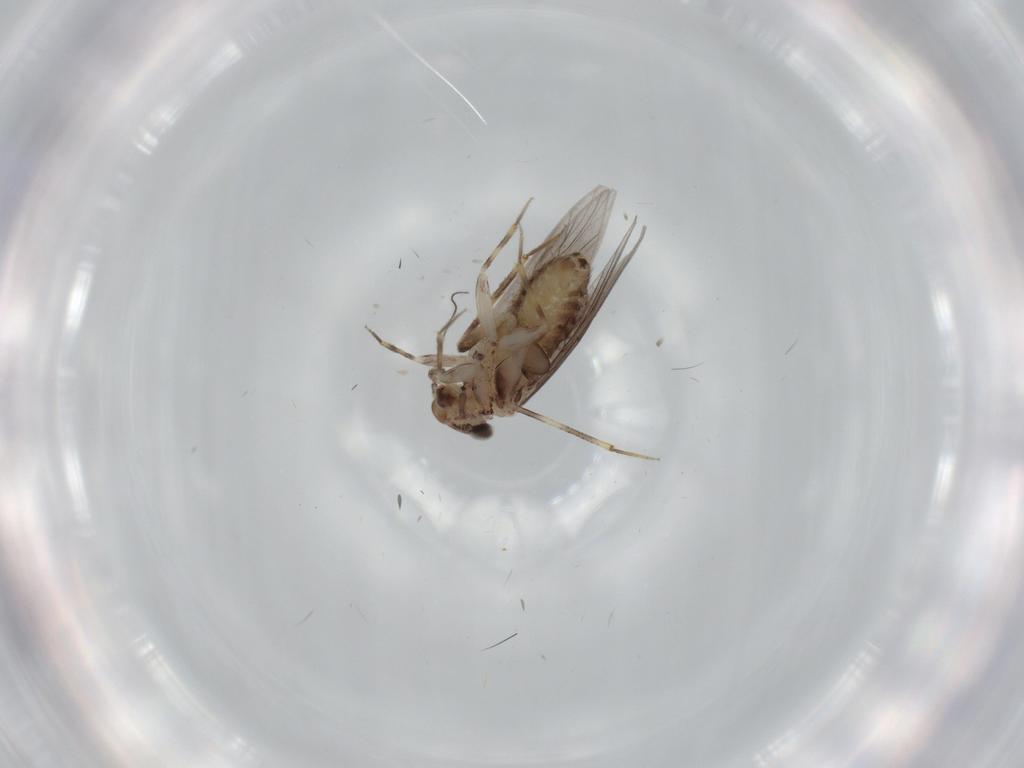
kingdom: Animalia
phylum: Arthropoda
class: Insecta
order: Psocodea
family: Lepidopsocidae
